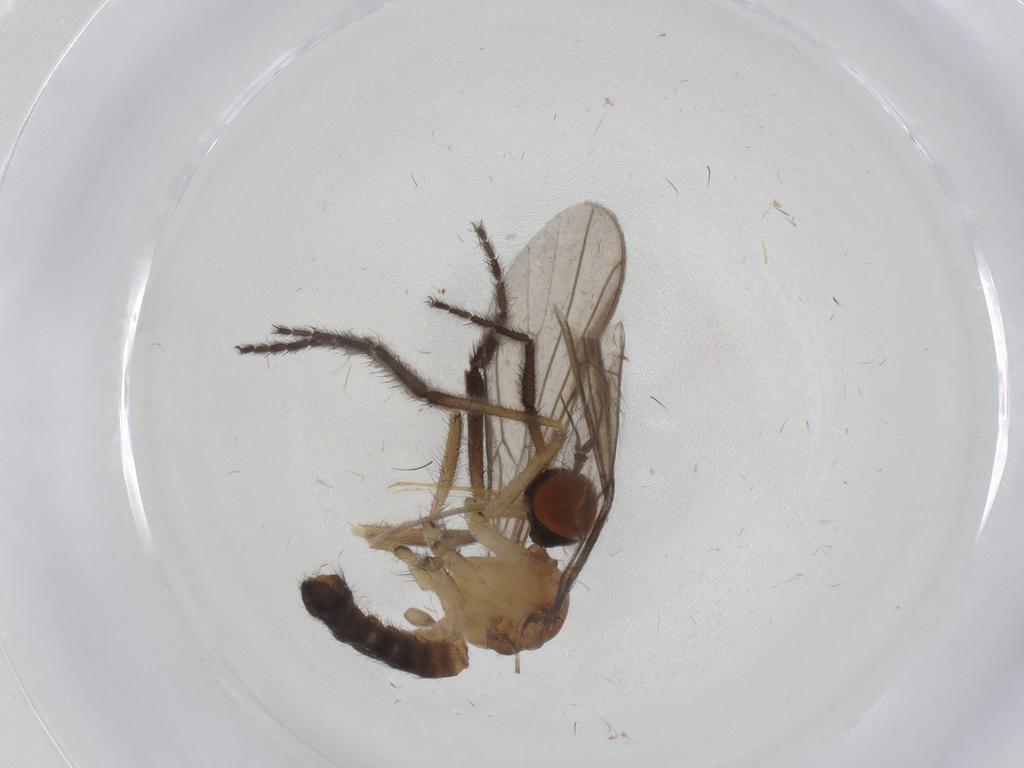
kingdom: Animalia
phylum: Arthropoda
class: Insecta
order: Diptera
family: Empididae
